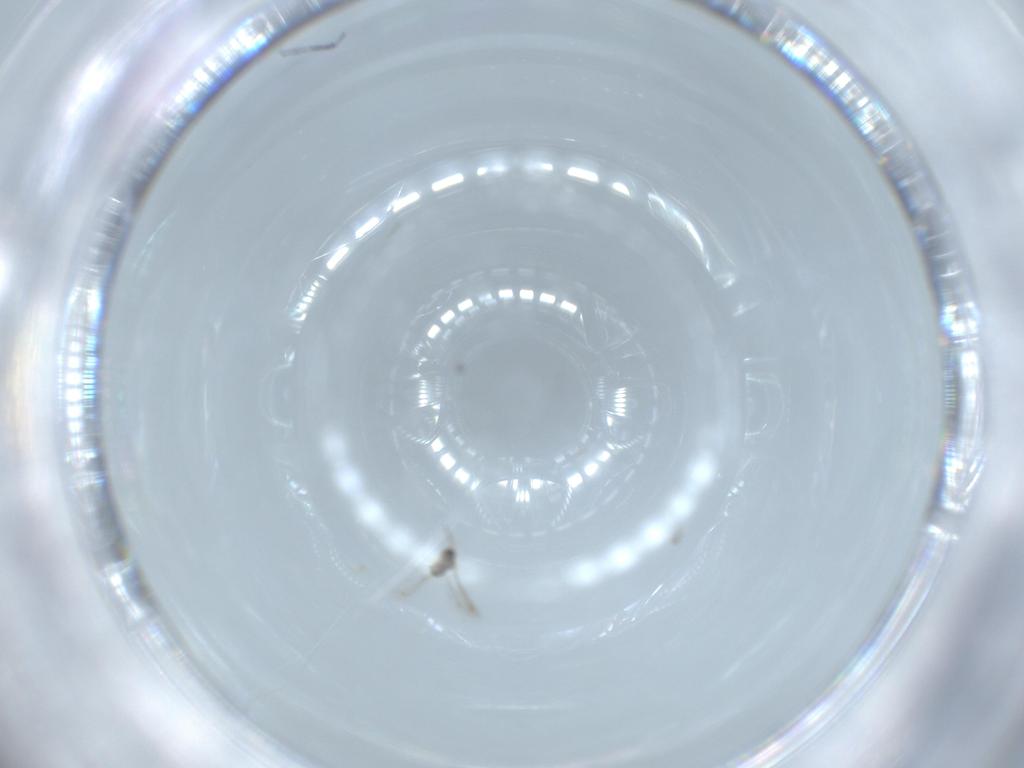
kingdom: Animalia
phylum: Arthropoda
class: Insecta
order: Hymenoptera
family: Mymaridae
